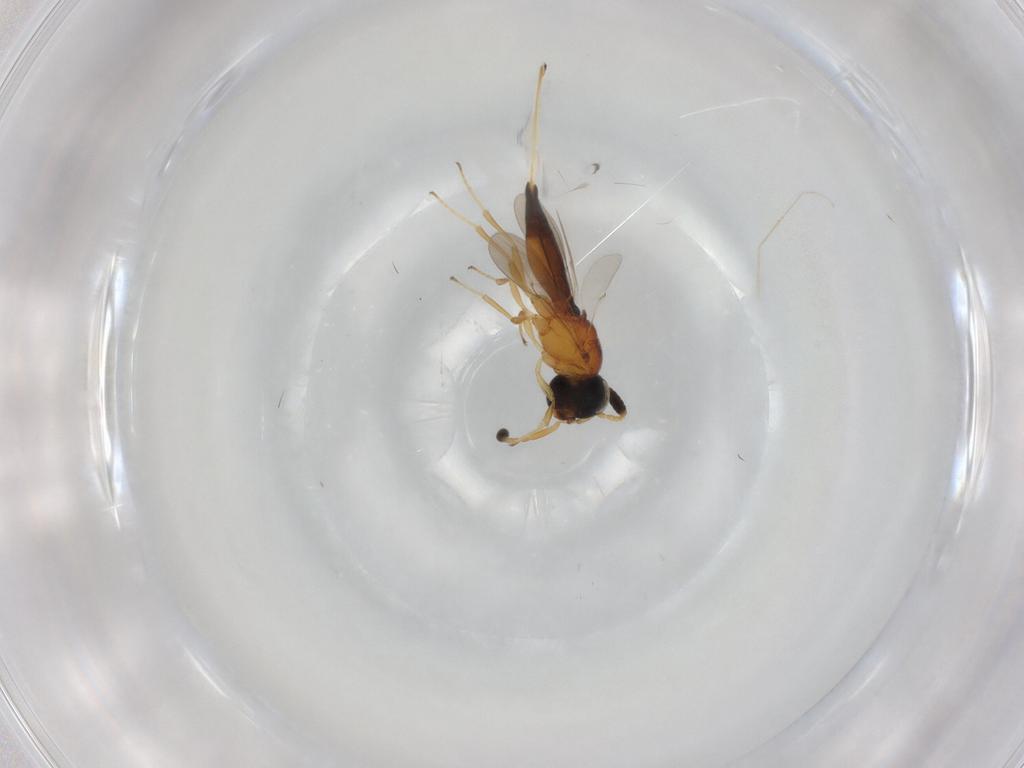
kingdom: Animalia
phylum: Arthropoda
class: Insecta
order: Hymenoptera
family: Scelionidae
